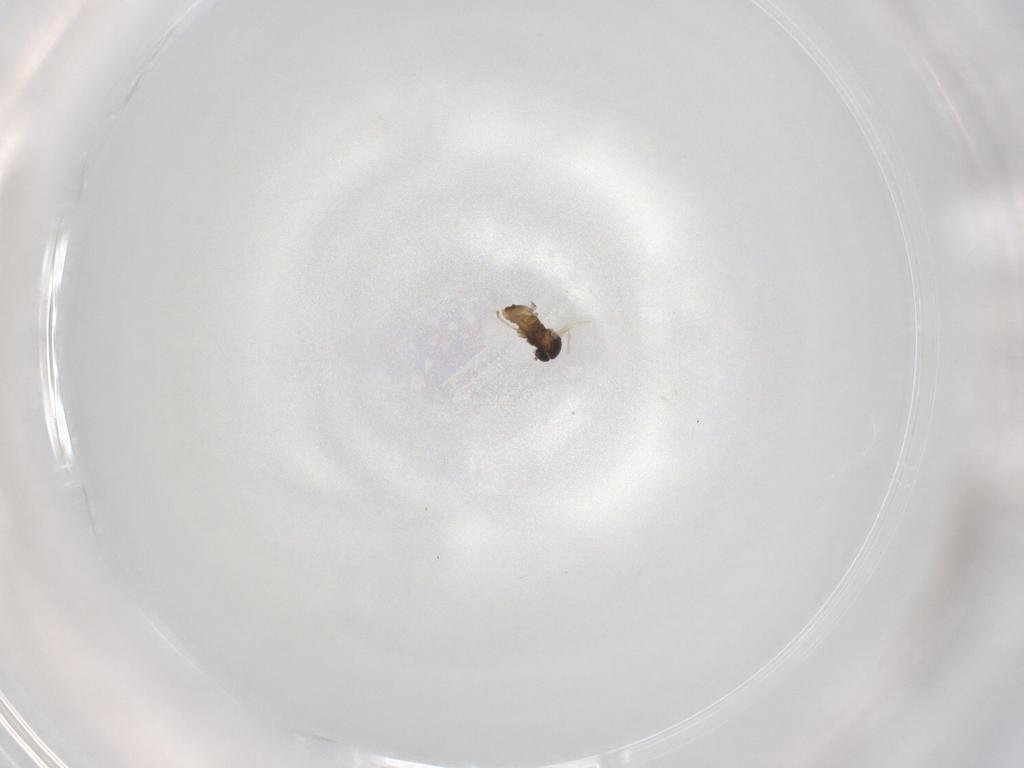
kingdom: Animalia
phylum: Arthropoda
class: Insecta
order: Diptera
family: Cecidomyiidae
